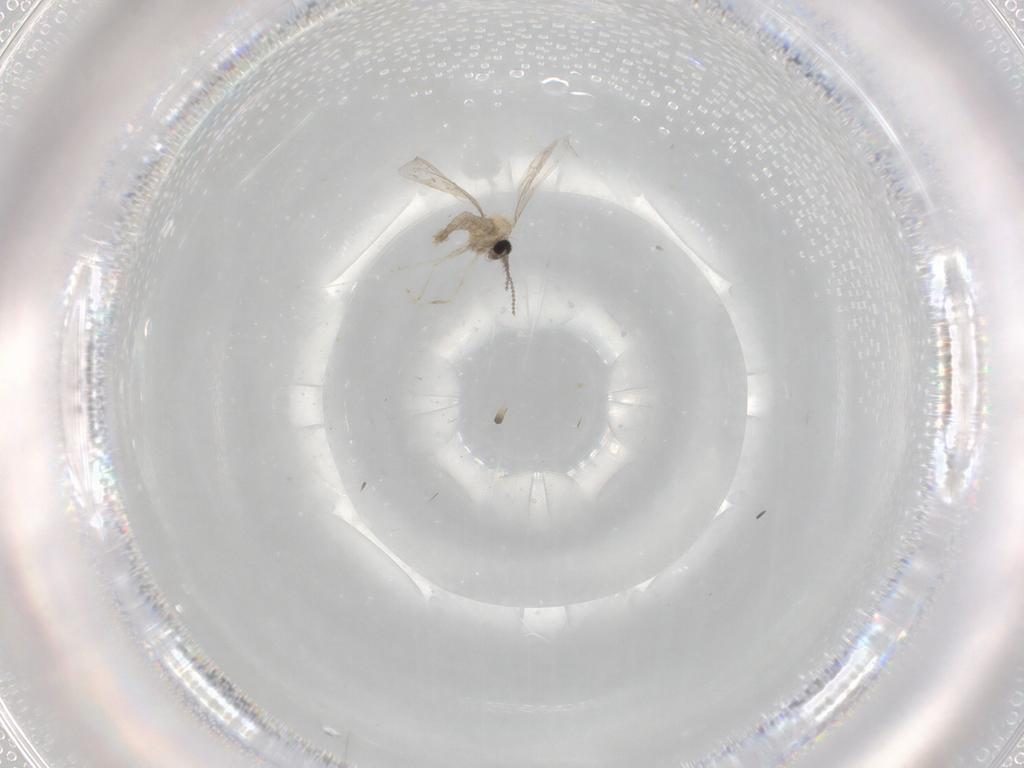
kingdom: Animalia
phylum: Arthropoda
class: Insecta
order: Diptera
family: Cecidomyiidae
